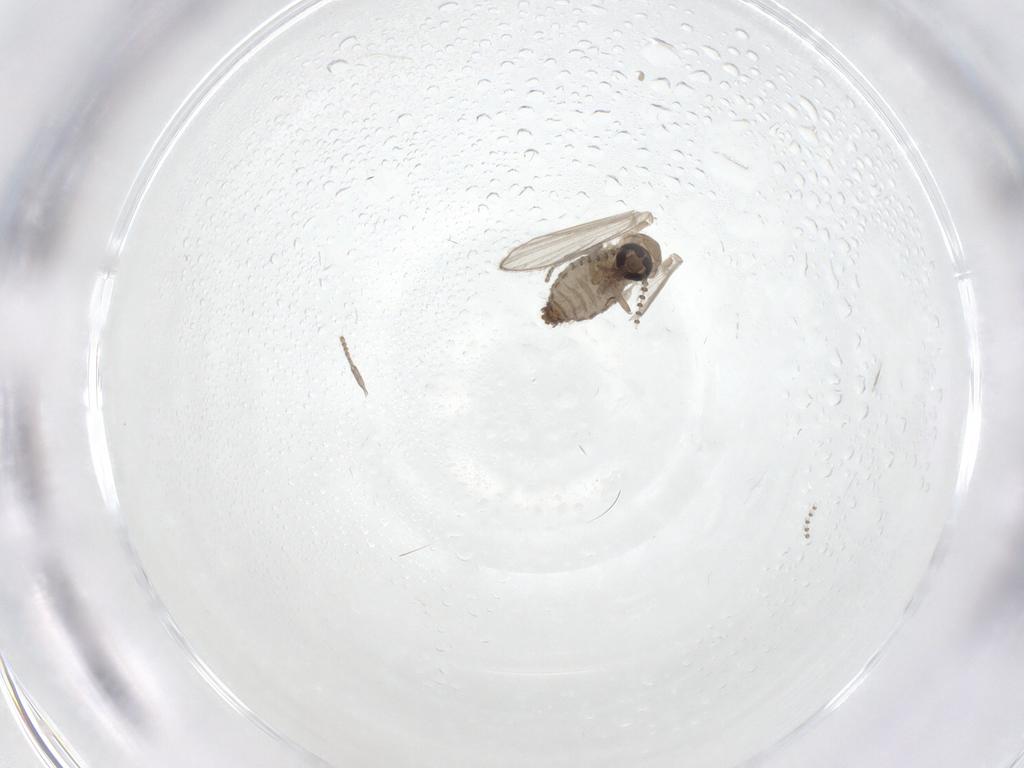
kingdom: Animalia
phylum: Arthropoda
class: Insecta
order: Diptera
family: Psychodidae
